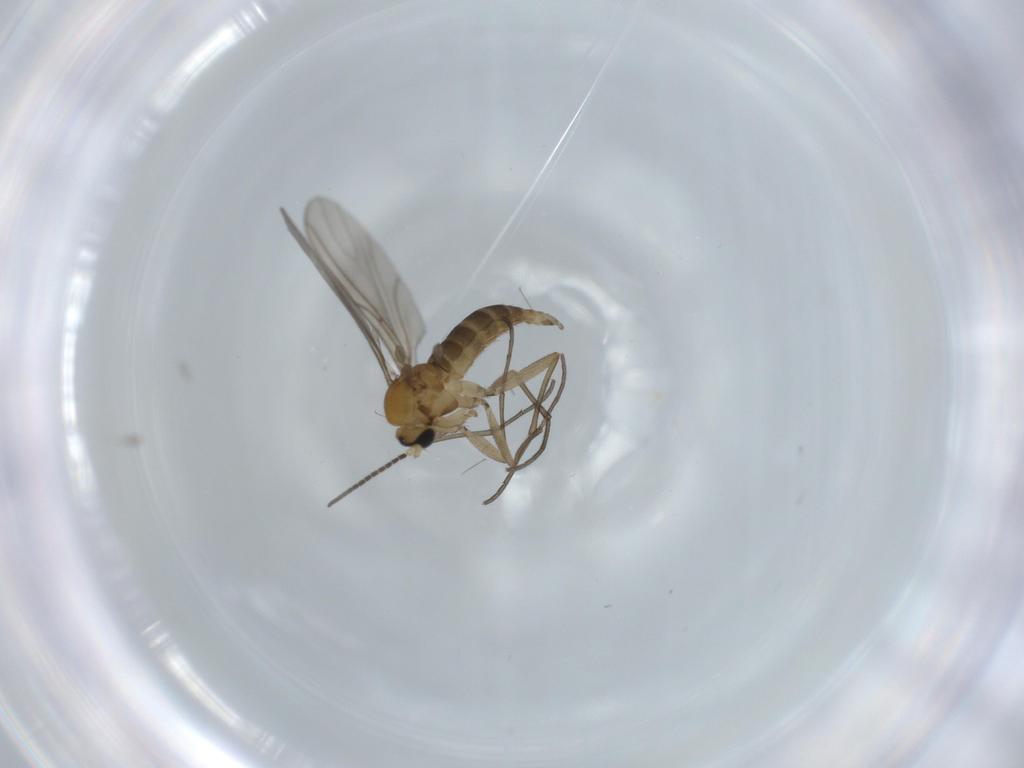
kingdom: Animalia
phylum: Arthropoda
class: Insecta
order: Diptera
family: Sciaridae
